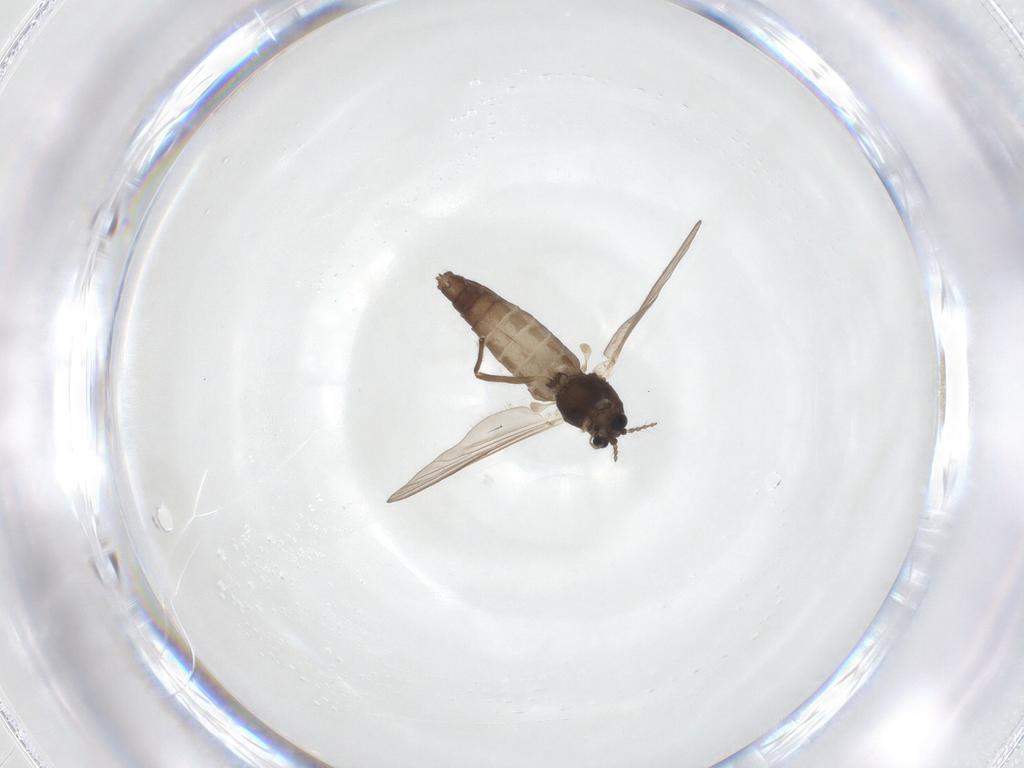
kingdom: Animalia
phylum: Arthropoda
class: Insecta
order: Diptera
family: Chironomidae
